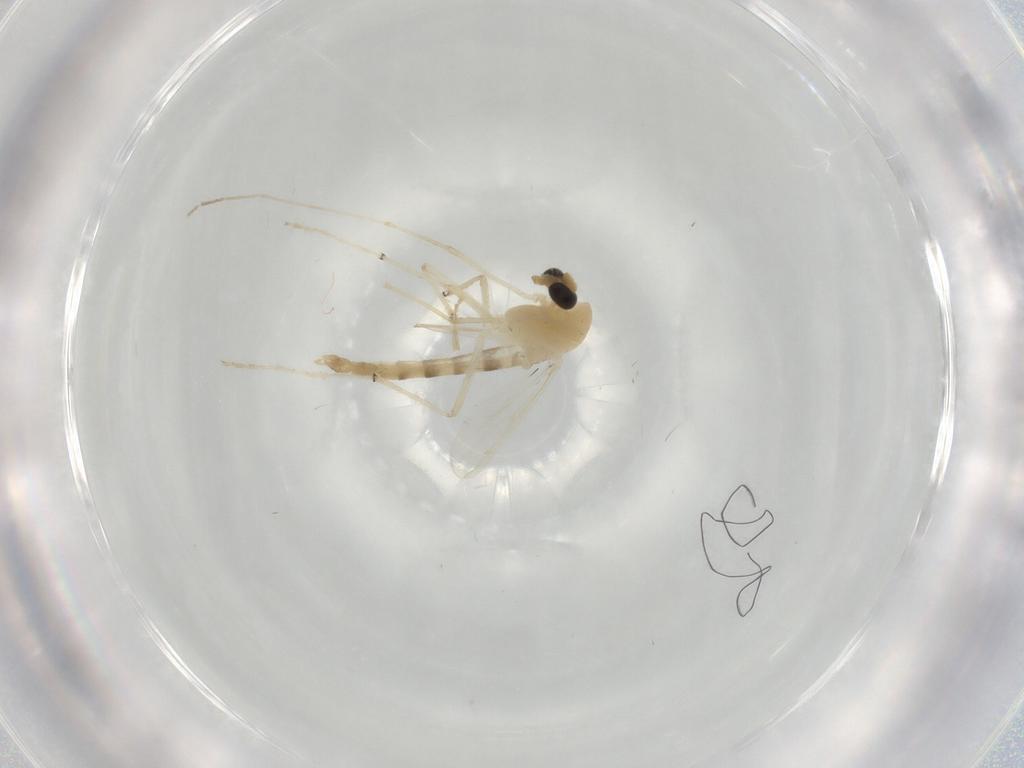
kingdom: Animalia
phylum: Arthropoda
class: Insecta
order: Diptera
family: Chironomidae
